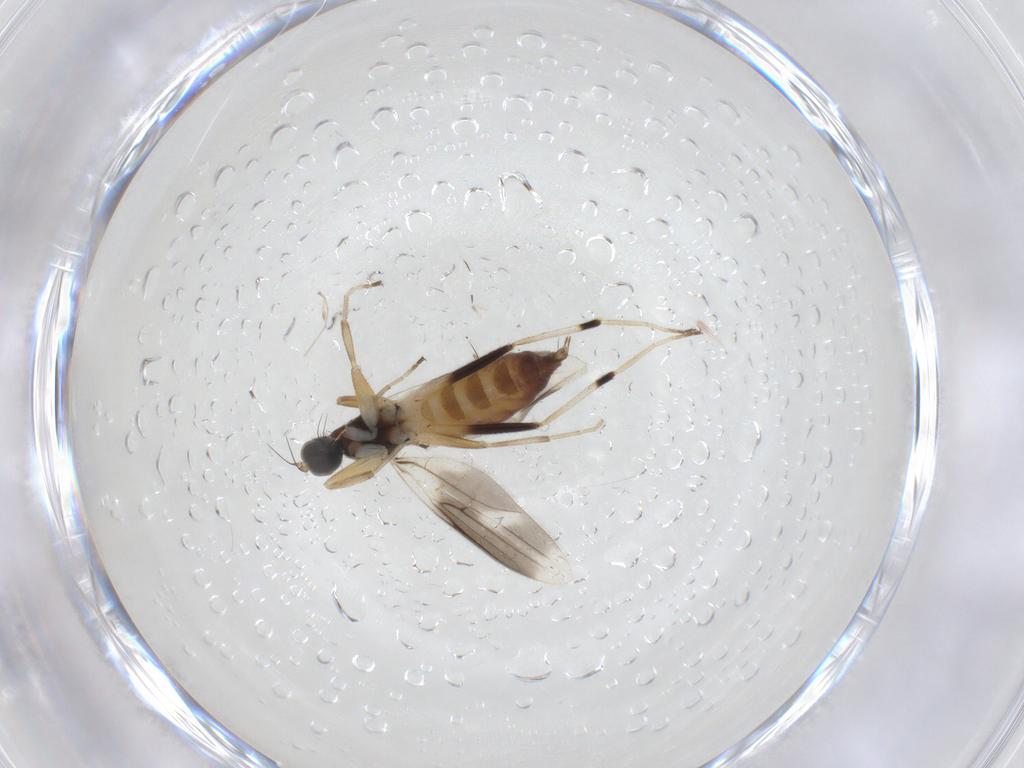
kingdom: Animalia
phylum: Arthropoda
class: Insecta
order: Diptera
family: Hybotidae
